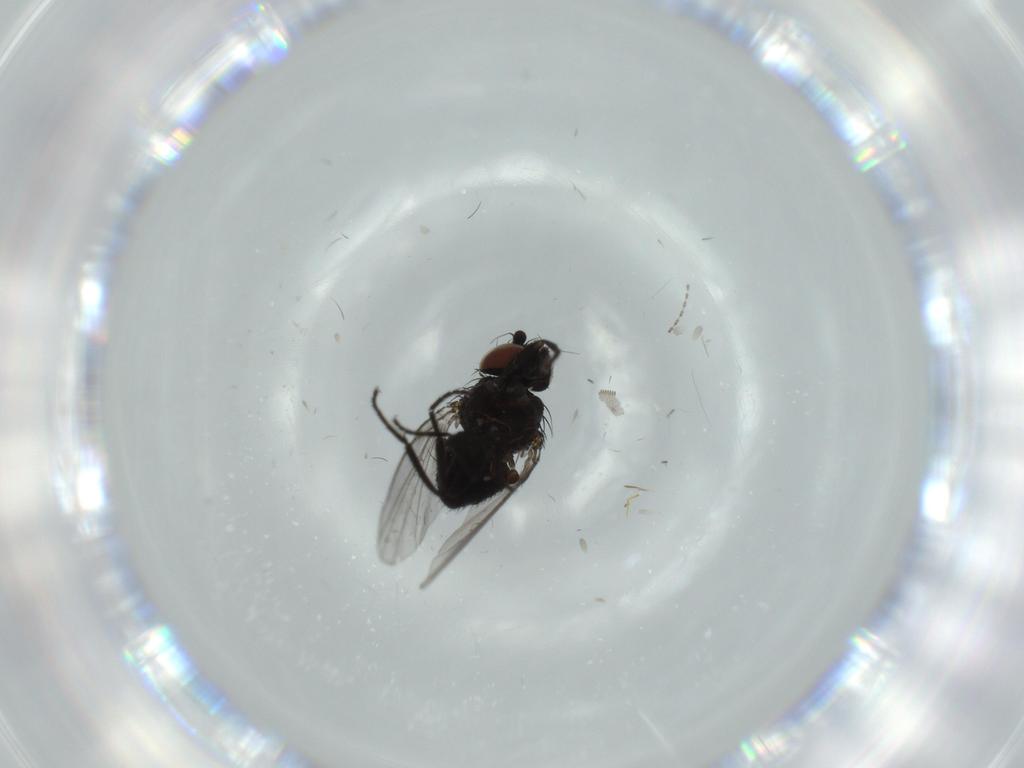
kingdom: Animalia
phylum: Arthropoda
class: Insecta
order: Diptera
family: Milichiidae
